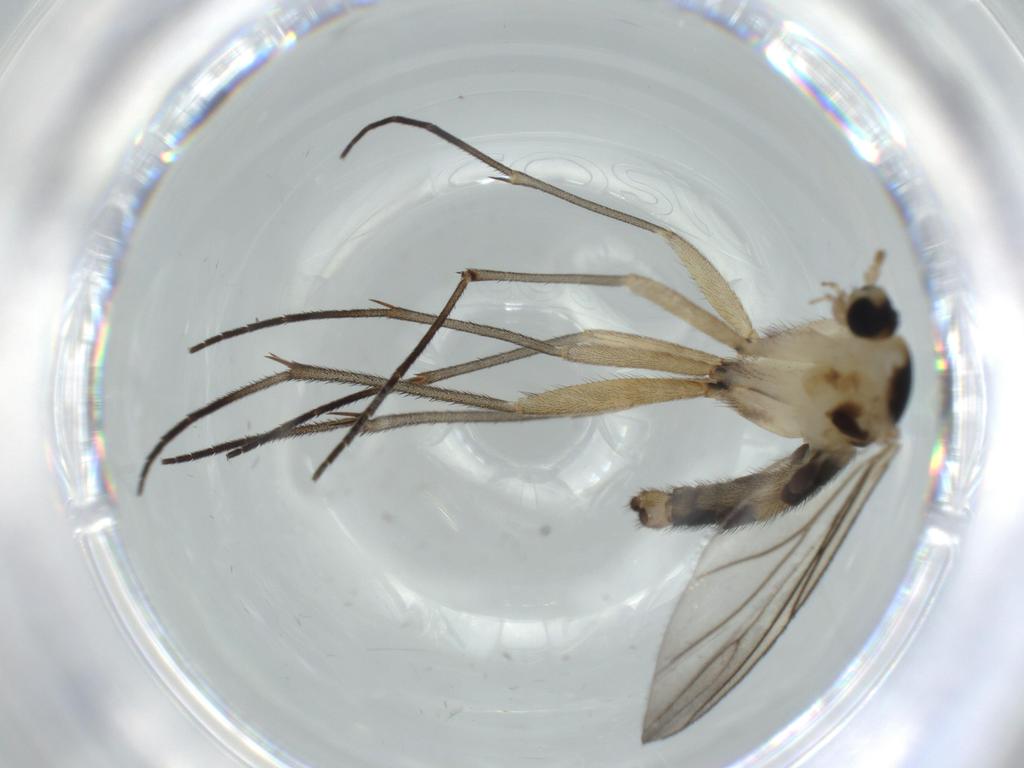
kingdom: Animalia
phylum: Arthropoda
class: Insecta
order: Diptera
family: Sciaridae
